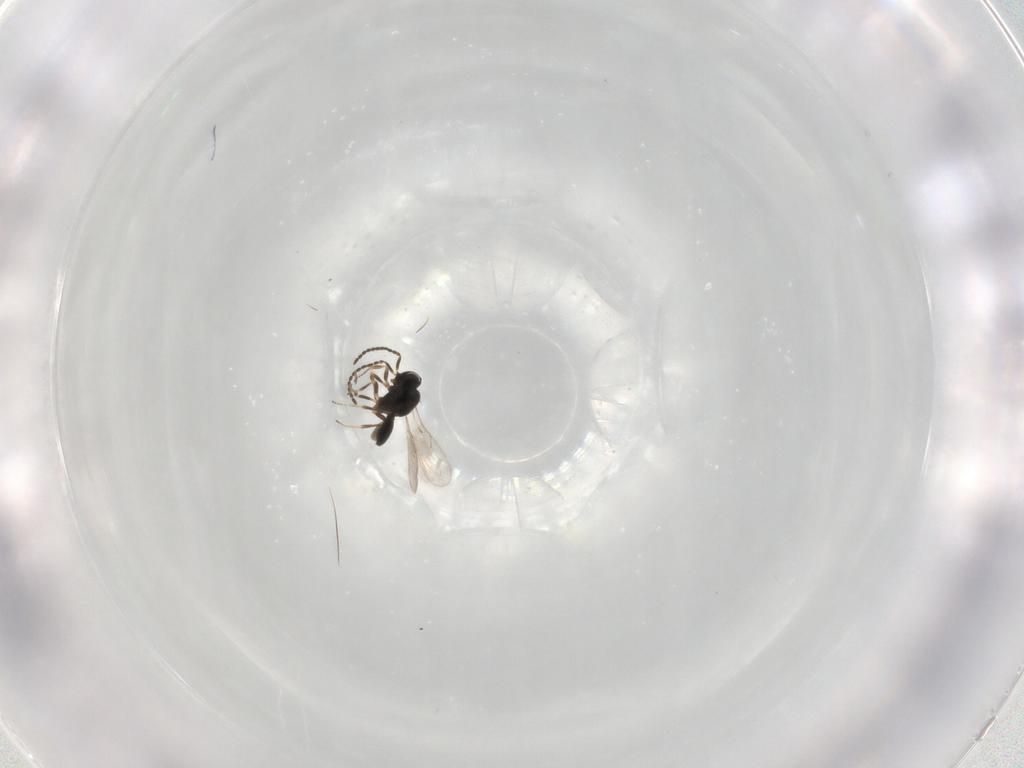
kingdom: Animalia
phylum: Arthropoda
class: Insecta
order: Hymenoptera
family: Scelionidae
